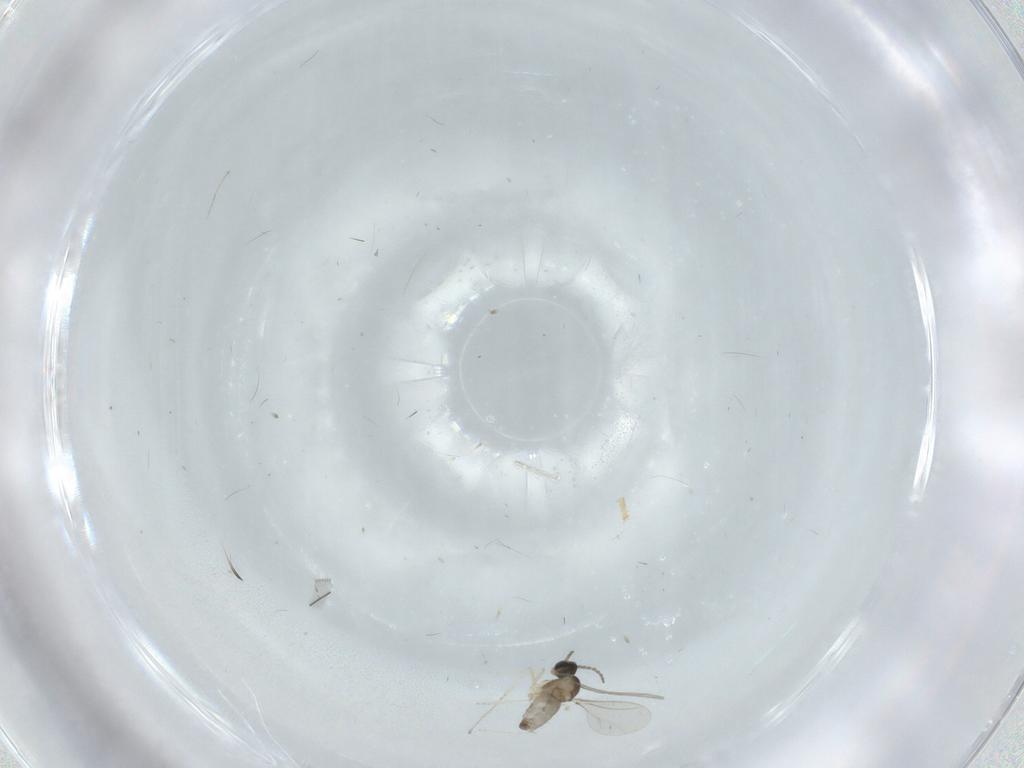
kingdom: Animalia
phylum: Arthropoda
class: Insecta
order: Diptera
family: Cecidomyiidae
